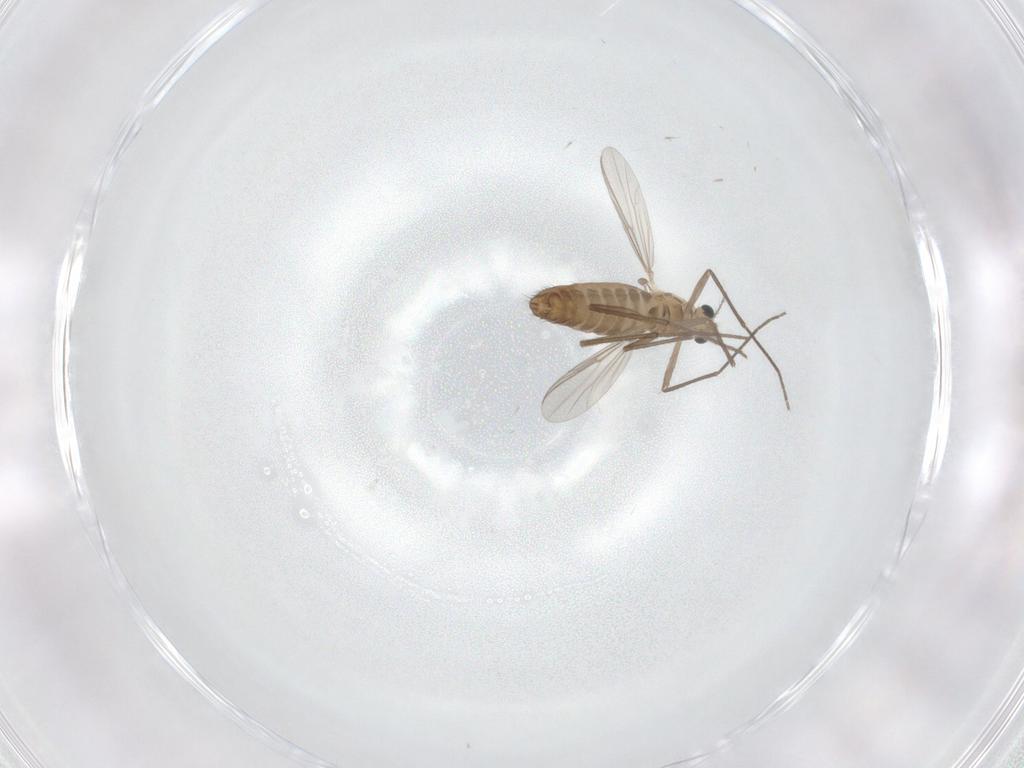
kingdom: Animalia
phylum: Arthropoda
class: Insecta
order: Diptera
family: Chironomidae
